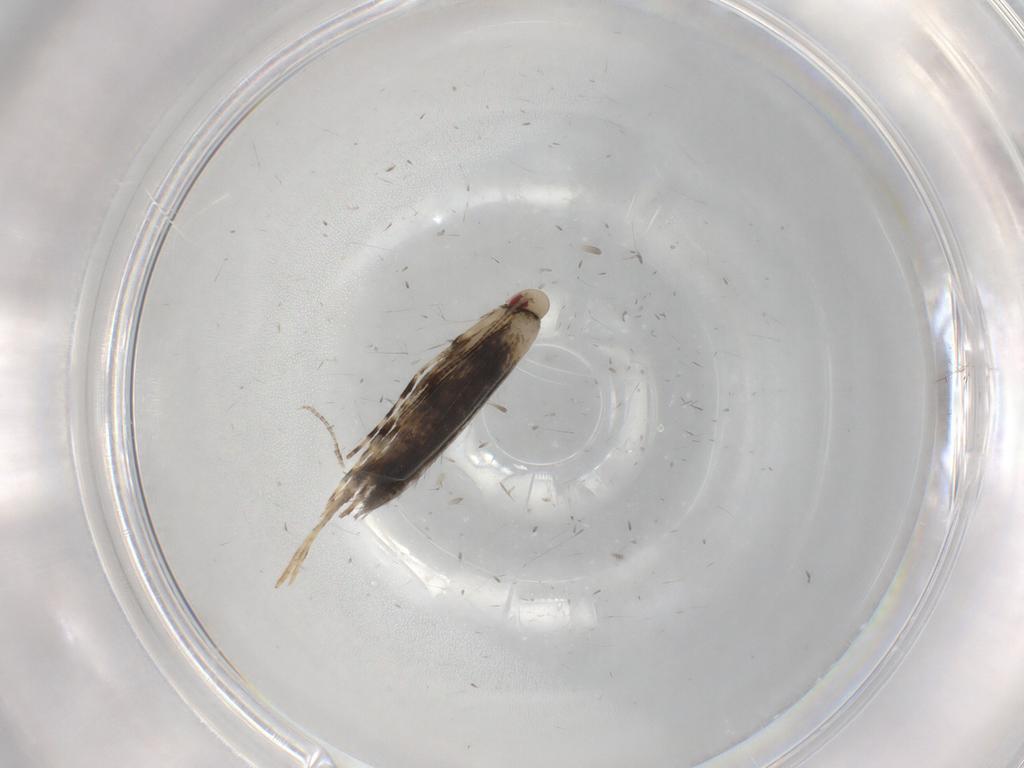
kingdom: Animalia
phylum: Arthropoda
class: Insecta
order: Lepidoptera
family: Gracillariidae
